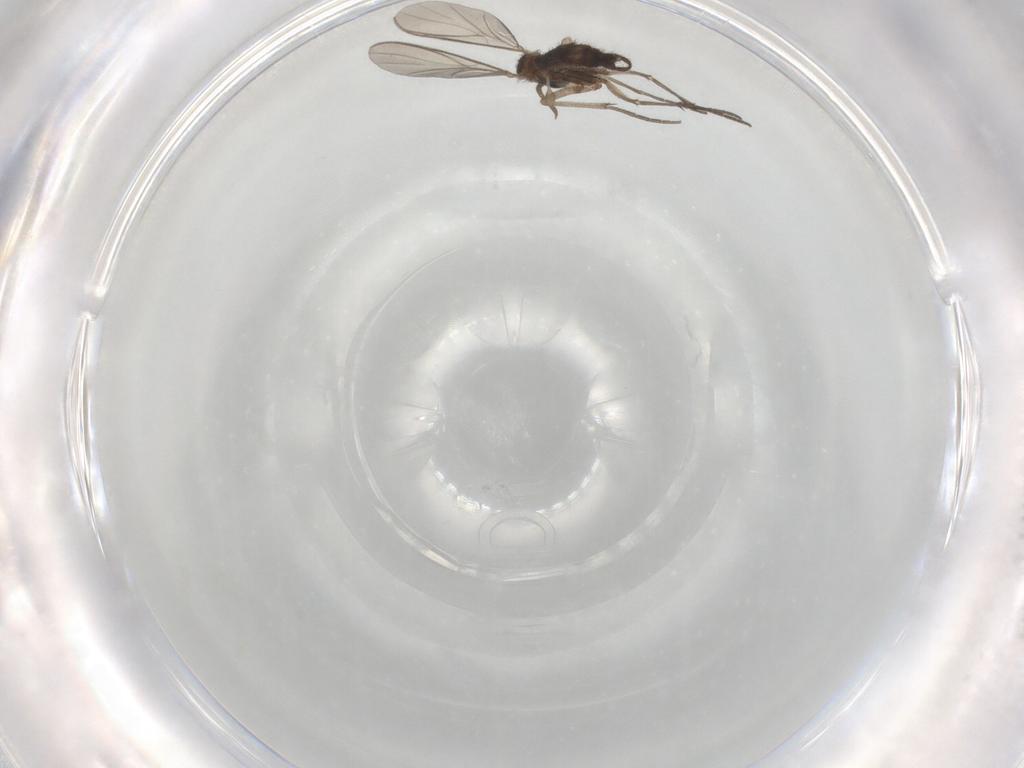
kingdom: Animalia
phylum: Arthropoda
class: Insecta
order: Diptera
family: Keroplatidae
